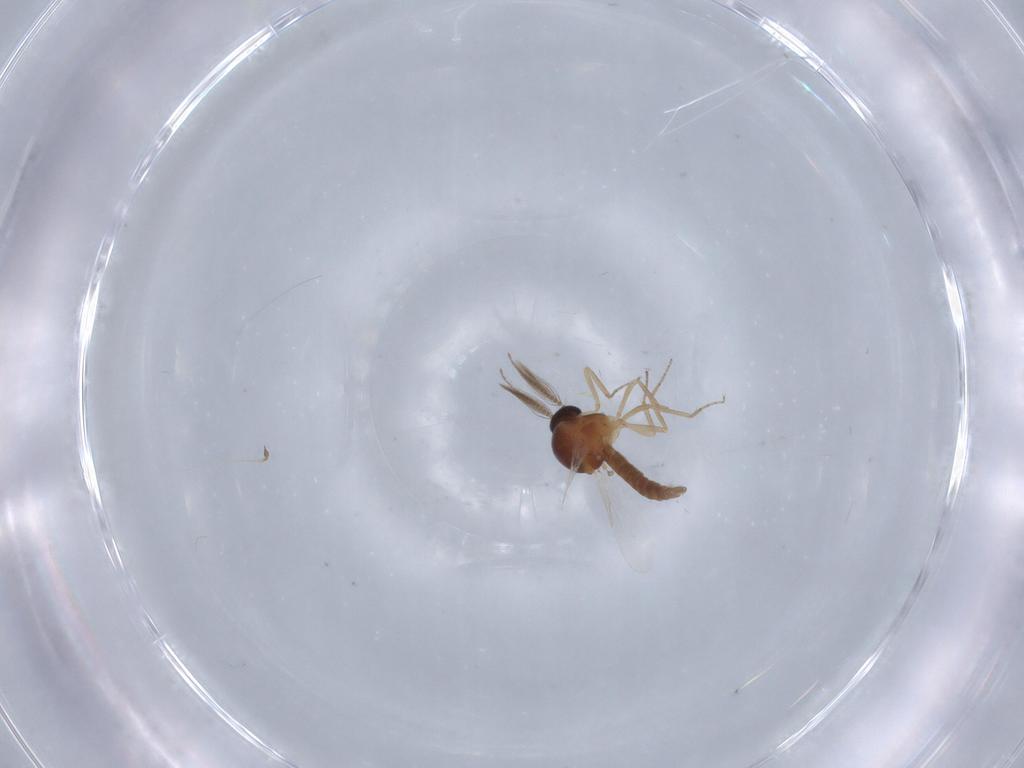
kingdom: Animalia
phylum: Arthropoda
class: Insecta
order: Diptera
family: Ceratopogonidae
